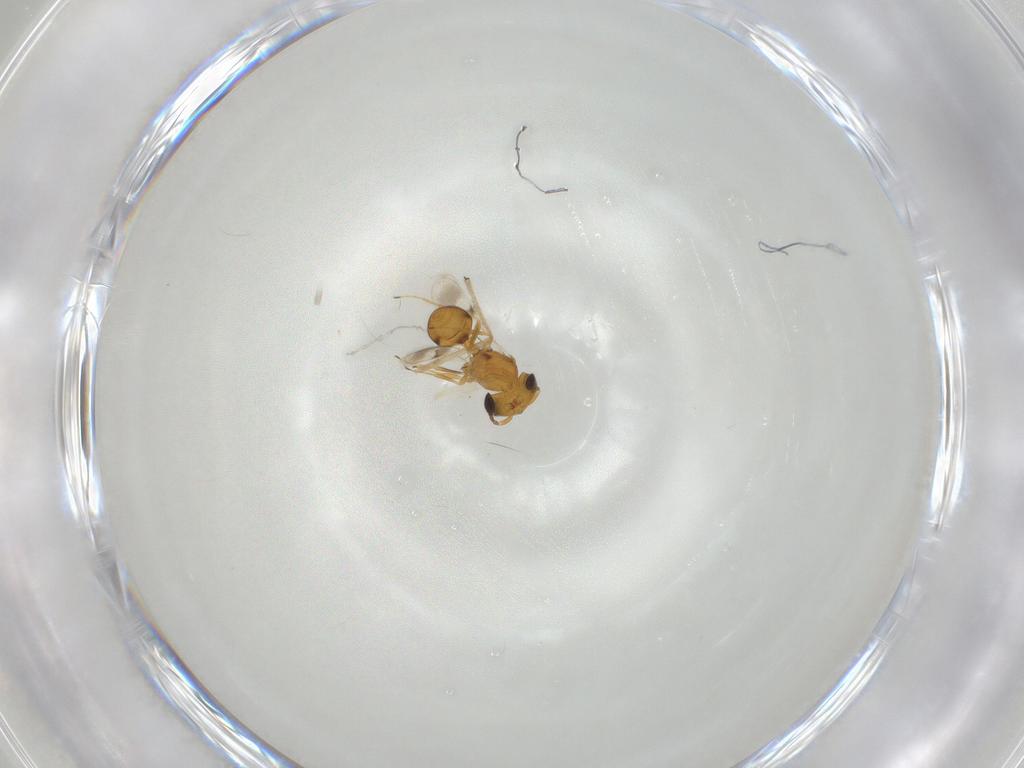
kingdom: Animalia
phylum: Arthropoda
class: Insecta
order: Hymenoptera
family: Scelionidae
